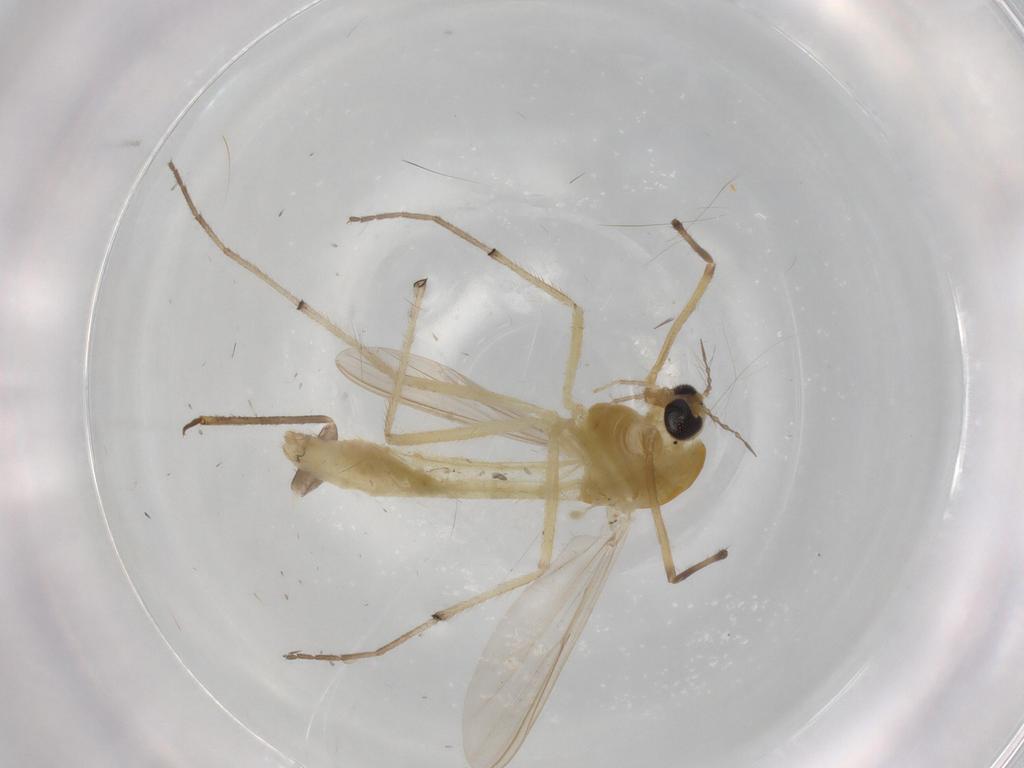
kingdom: Animalia
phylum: Arthropoda
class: Insecta
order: Diptera
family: Chironomidae
